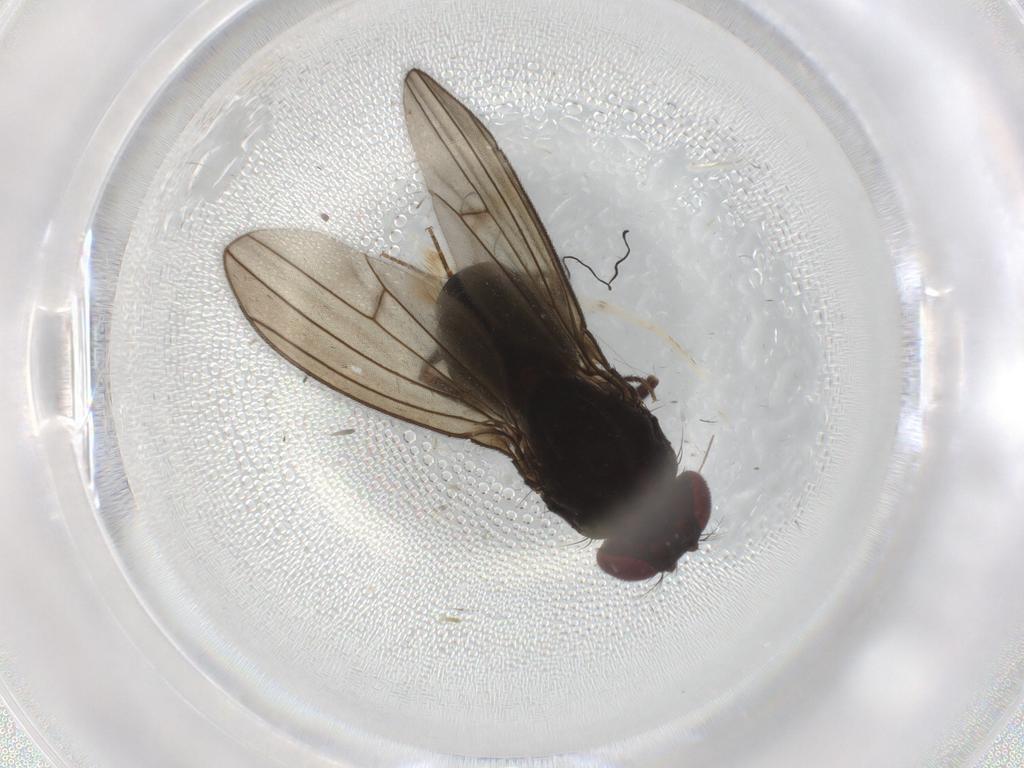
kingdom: Animalia
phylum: Arthropoda
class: Insecta
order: Diptera
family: Drosophilidae
